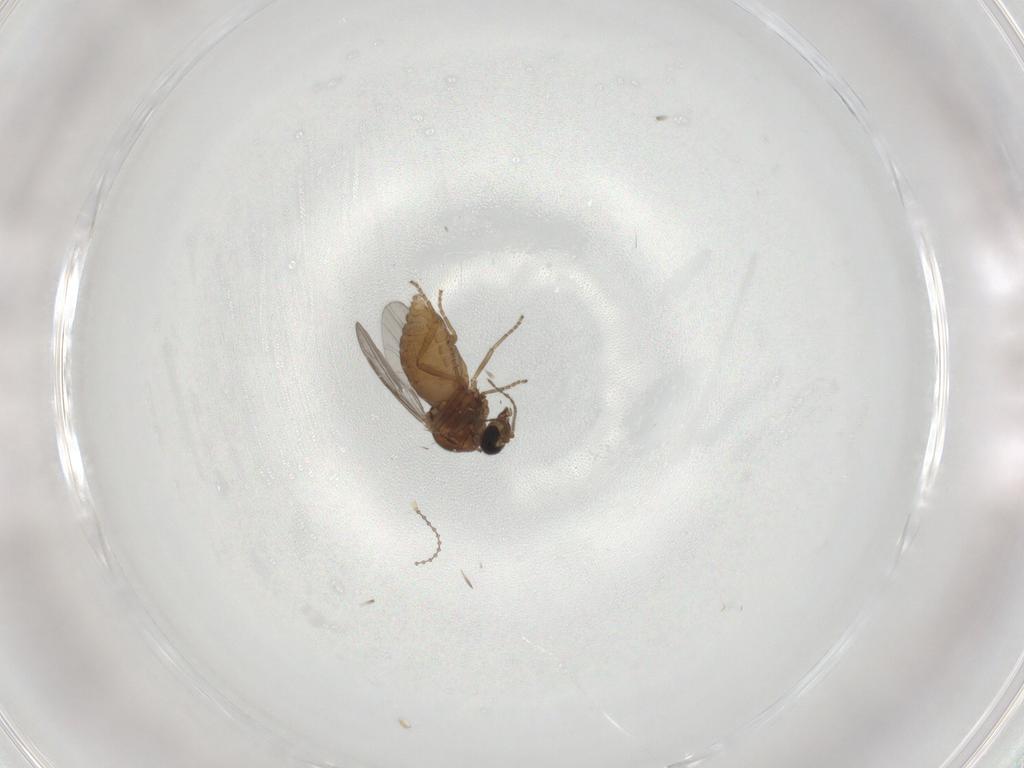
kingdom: Animalia
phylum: Arthropoda
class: Insecta
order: Diptera
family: Ceratopogonidae
